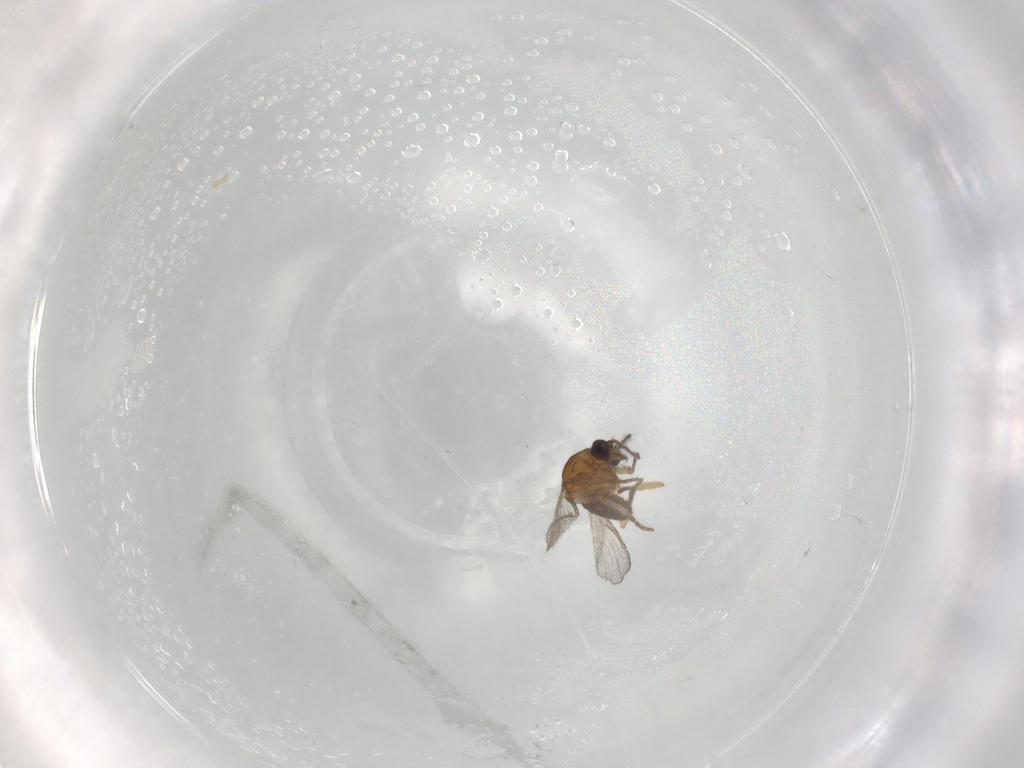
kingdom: Animalia
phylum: Arthropoda
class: Insecta
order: Diptera
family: Ceratopogonidae
